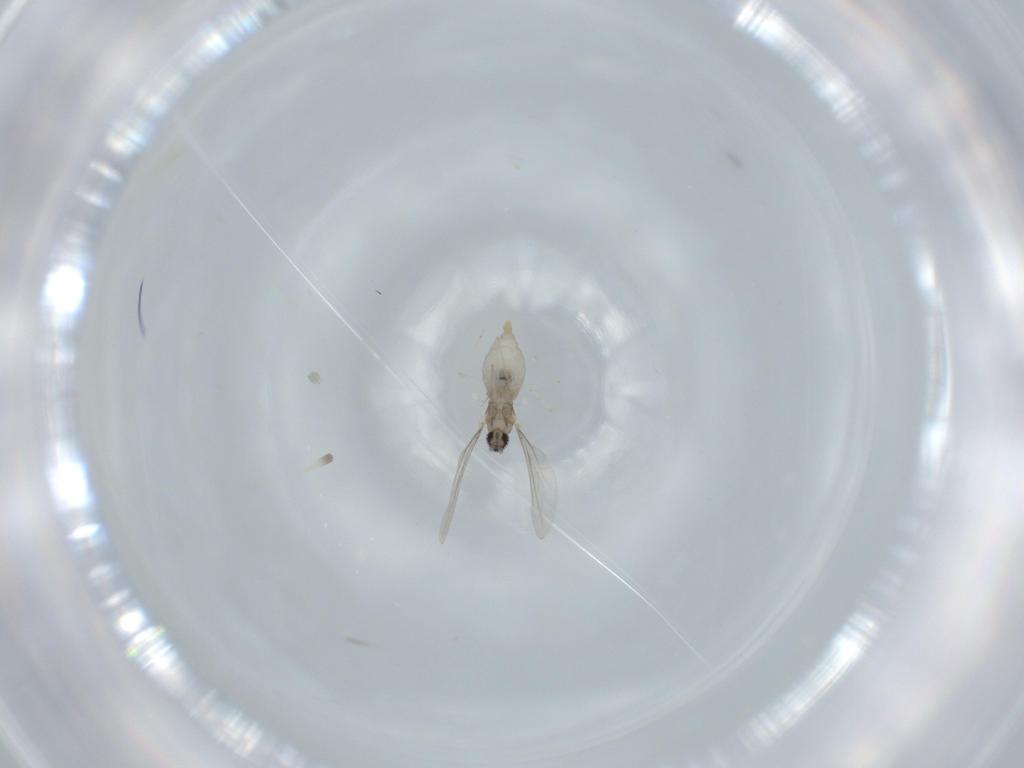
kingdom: Animalia
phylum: Arthropoda
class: Insecta
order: Diptera
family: Cecidomyiidae
